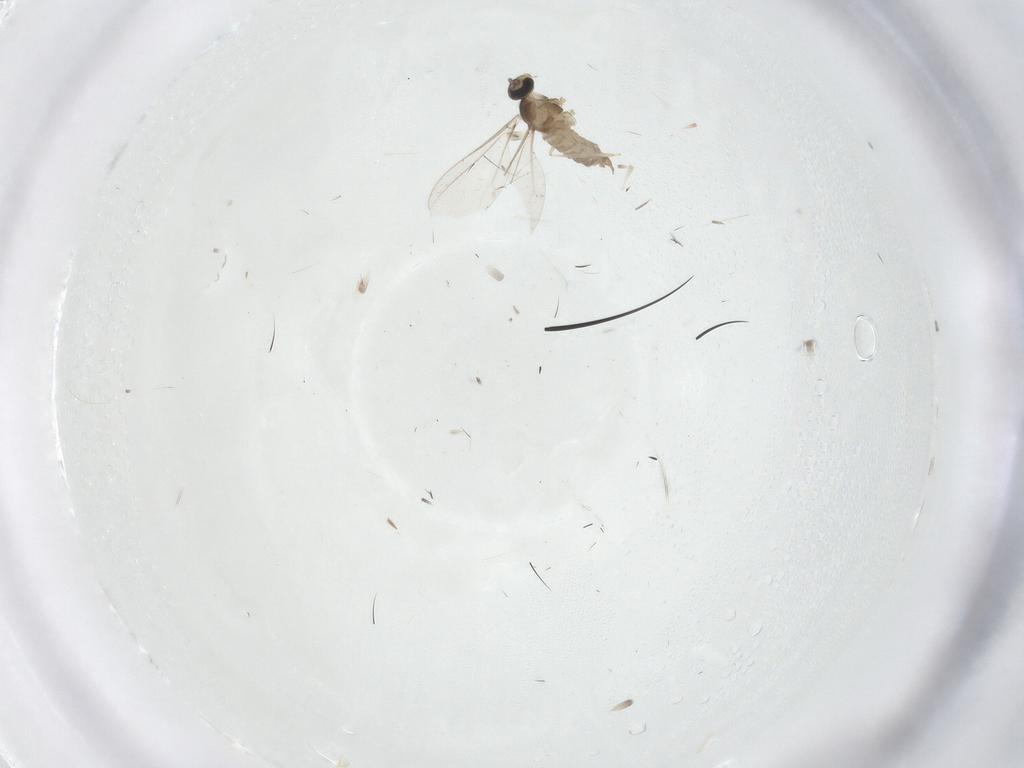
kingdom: Animalia
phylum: Arthropoda
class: Insecta
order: Diptera
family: Cecidomyiidae
